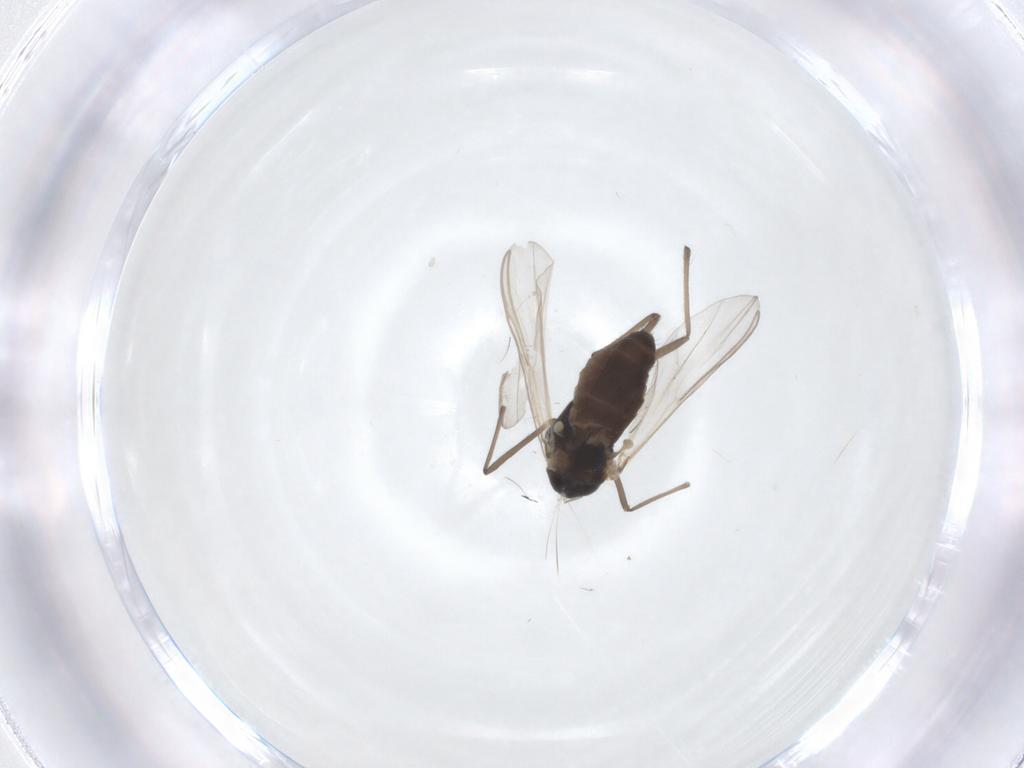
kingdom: Animalia
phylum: Arthropoda
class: Insecta
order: Diptera
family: Chironomidae
